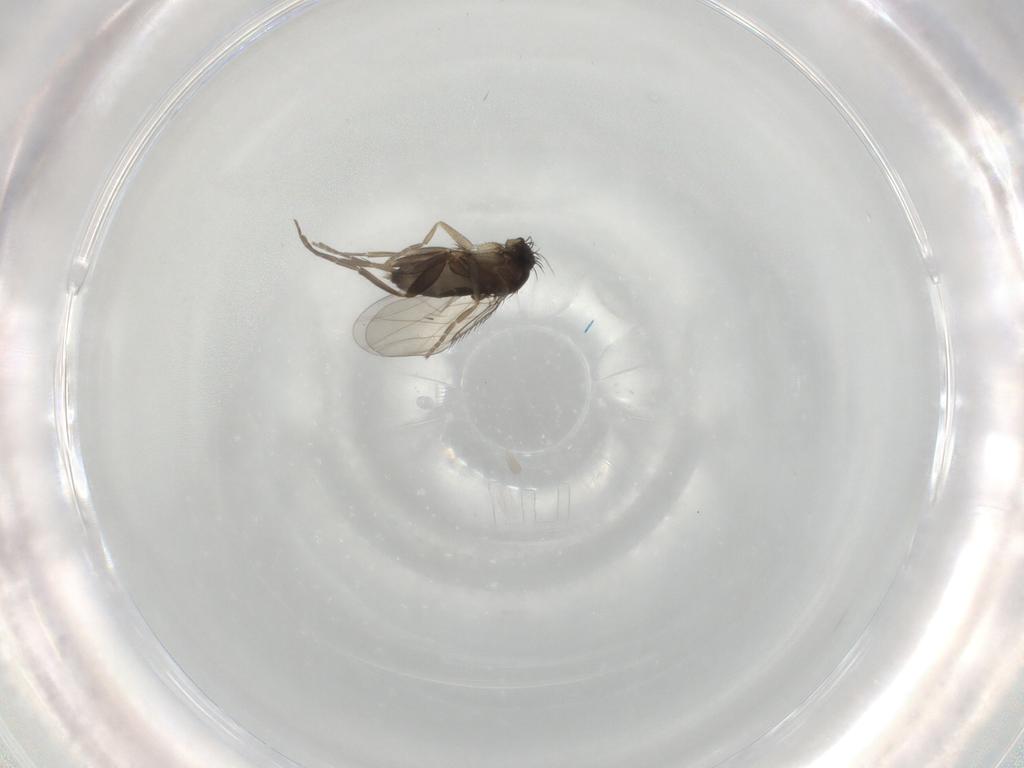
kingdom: Animalia
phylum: Arthropoda
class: Insecta
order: Diptera
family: Phoridae
